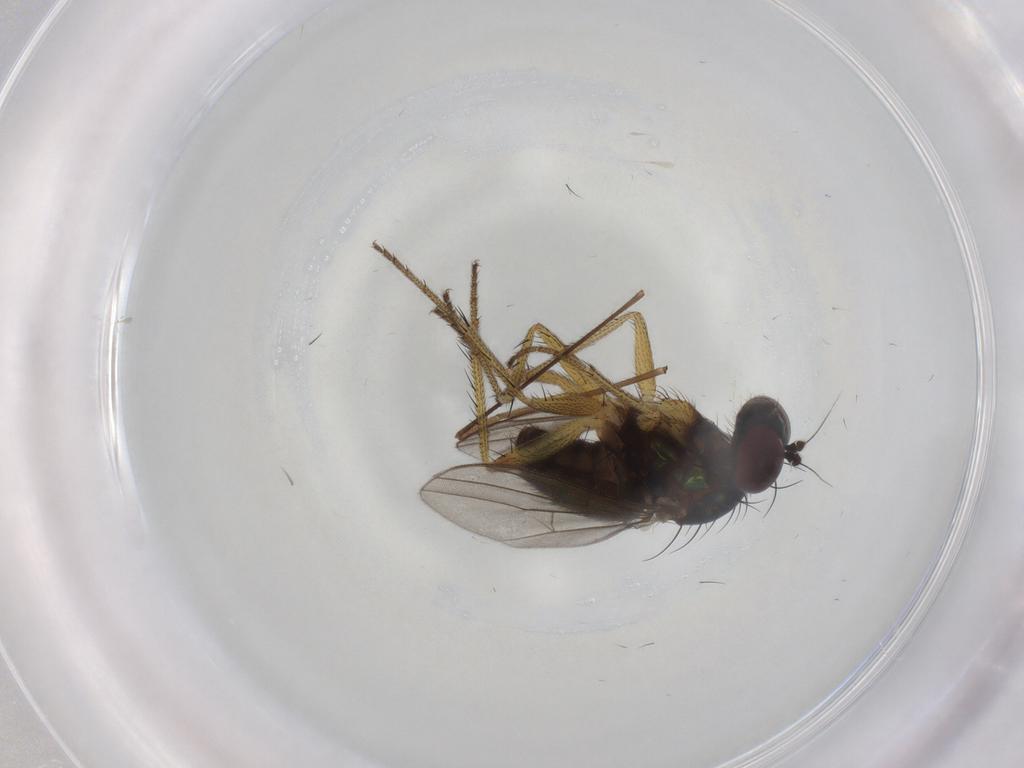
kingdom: Animalia
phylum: Arthropoda
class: Insecta
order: Diptera
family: Dolichopodidae
